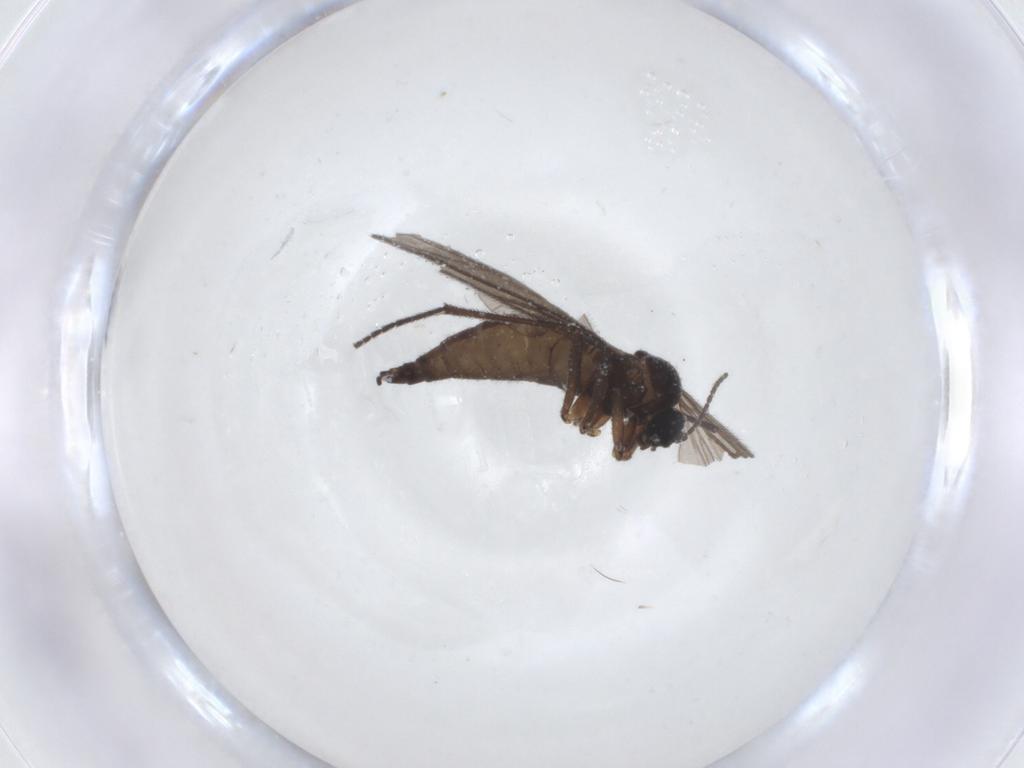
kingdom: Animalia
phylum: Arthropoda
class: Insecta
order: Diptera
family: Sciaridae
